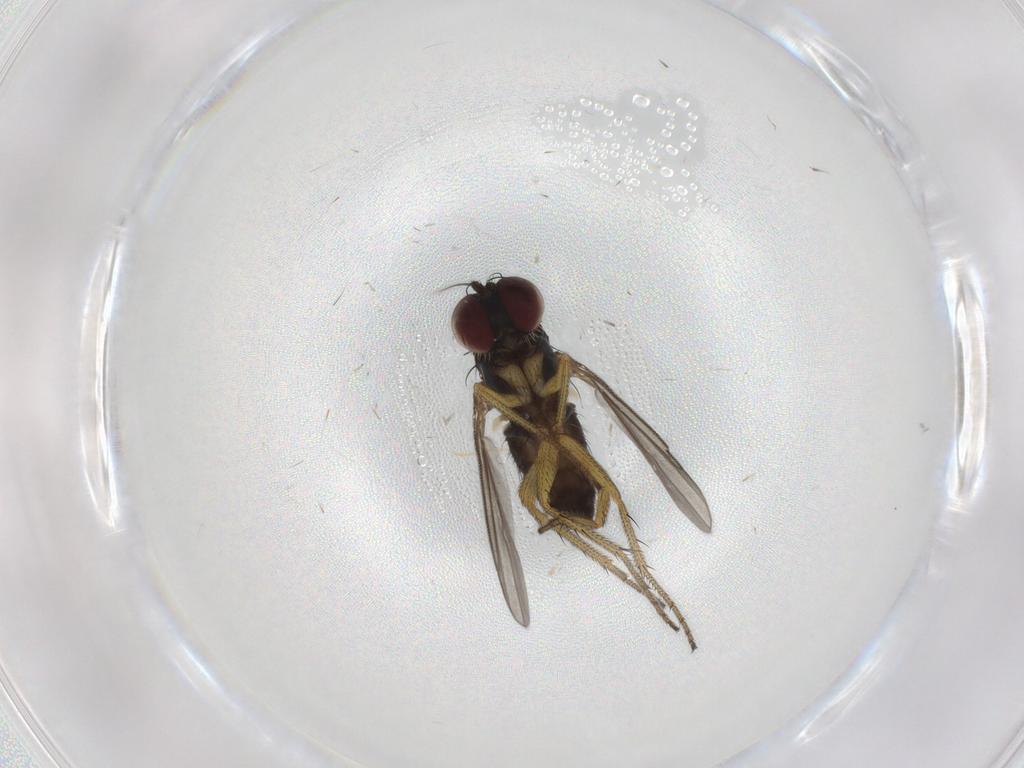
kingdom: Animalia
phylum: Arthropoda
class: Insecta
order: Diptera
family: Dolichopodidae
